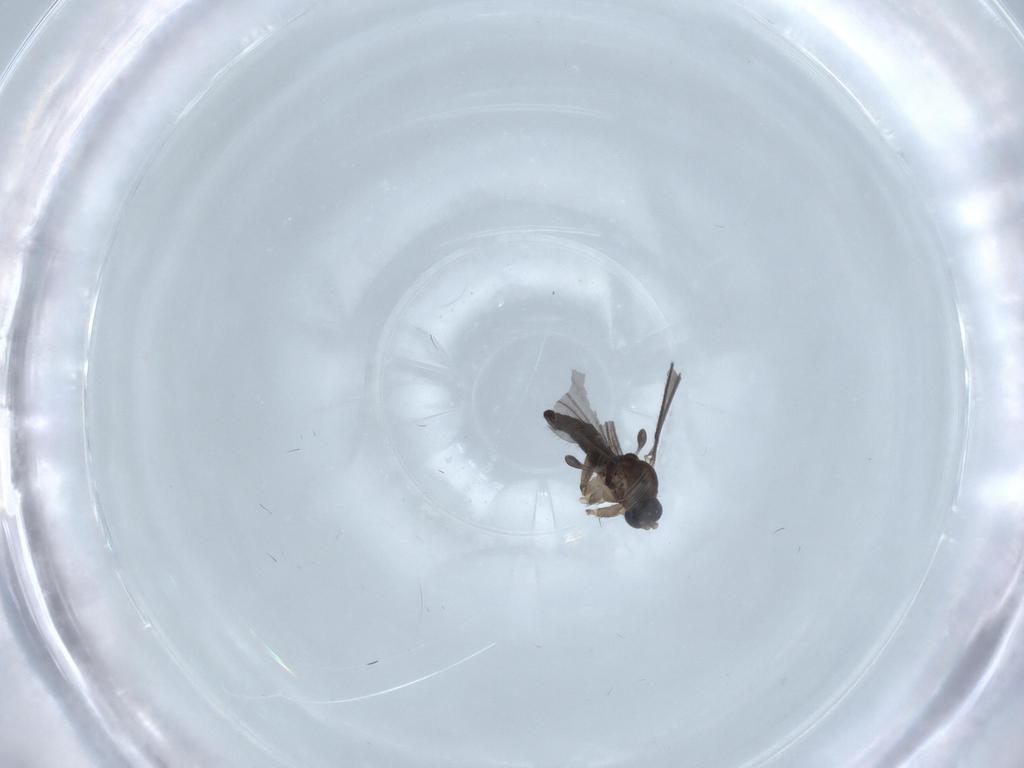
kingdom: Animalia
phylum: Arthropoda
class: Insecta
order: Diptera
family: Sciaridae
